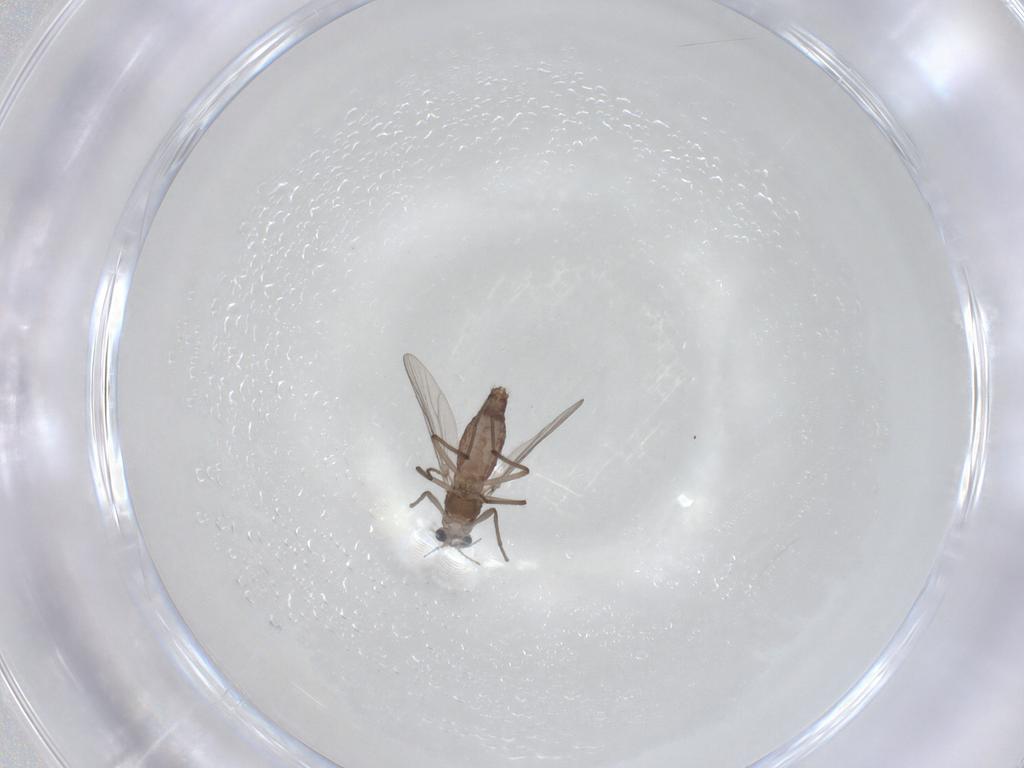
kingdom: Animalia
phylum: Arthropoda
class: Insecta
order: Diptera
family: Chironomidae
